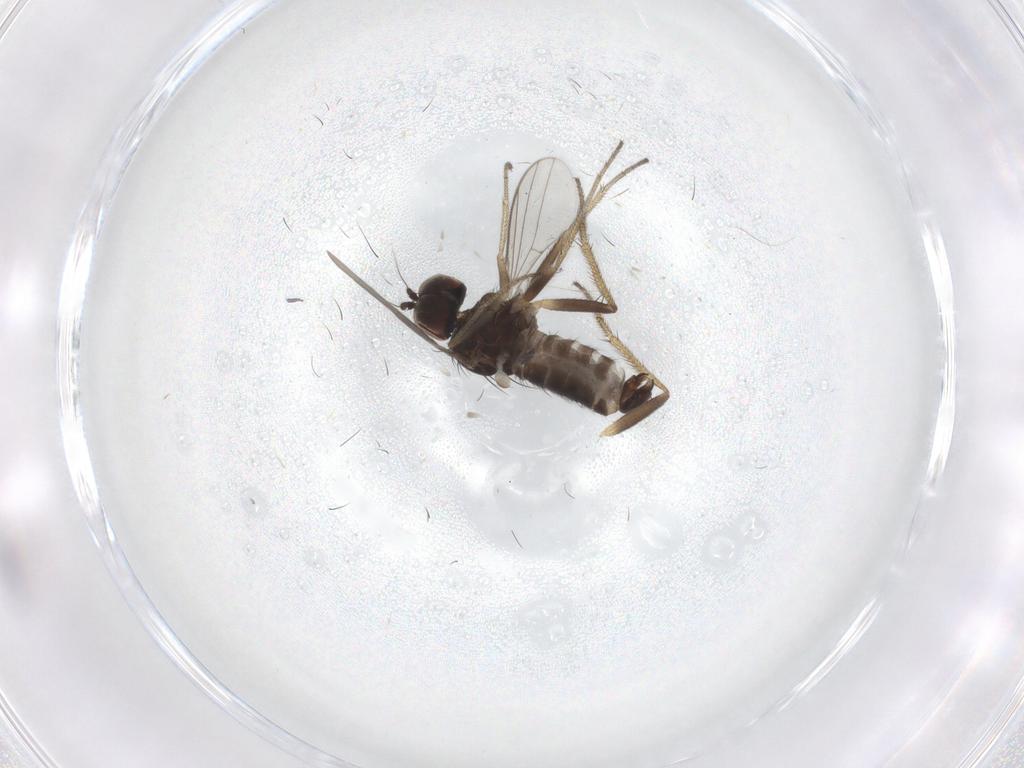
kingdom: Animalia
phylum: Arthropoda
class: Insecta
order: Diptera
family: Dolichopodidae
